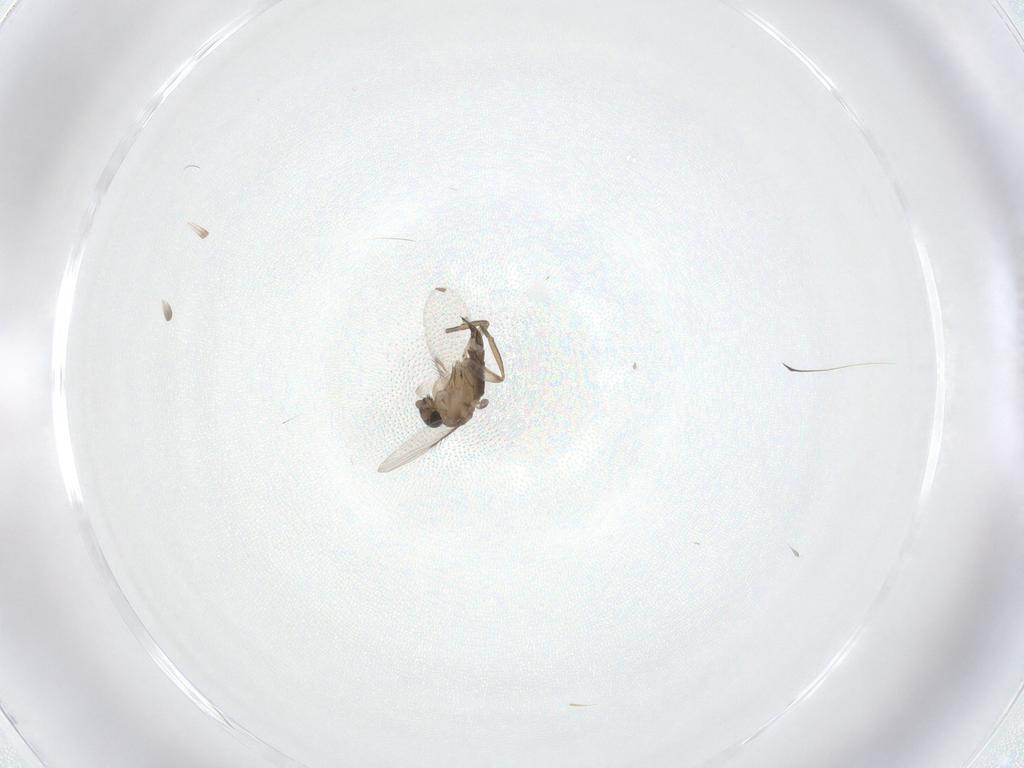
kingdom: Animalia
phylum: Arthropoda
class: Insecta
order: Diptera
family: Phoridae
